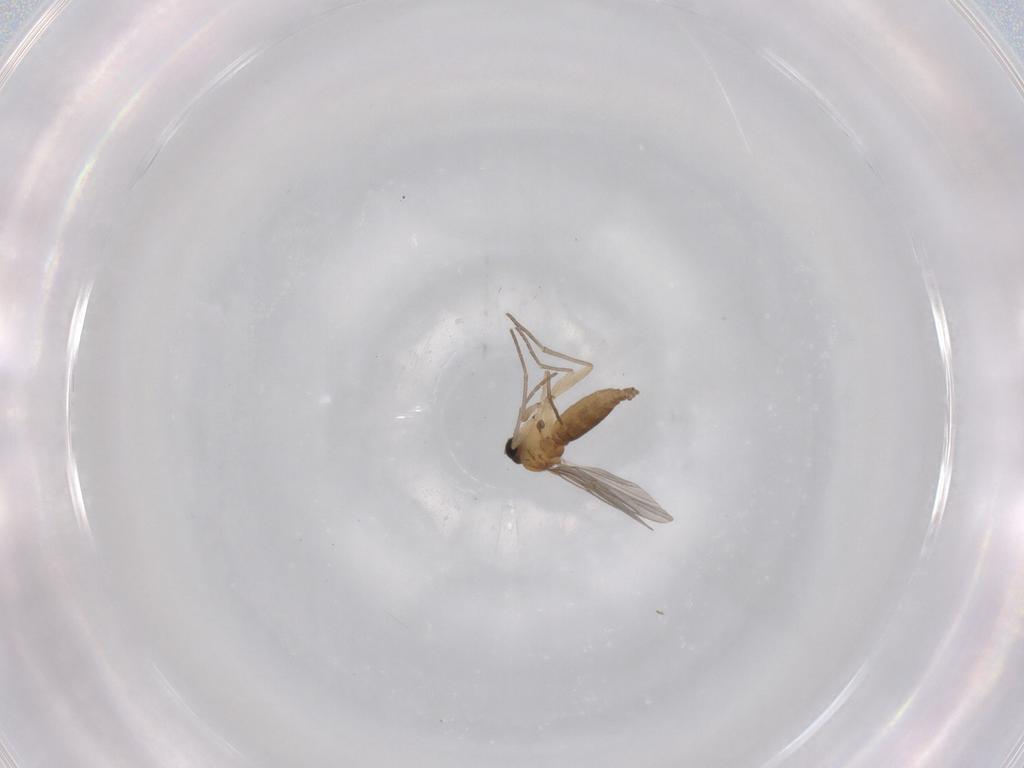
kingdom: Animalia
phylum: Arthropoda
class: Insecta
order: Diptera
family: Sciaridae
